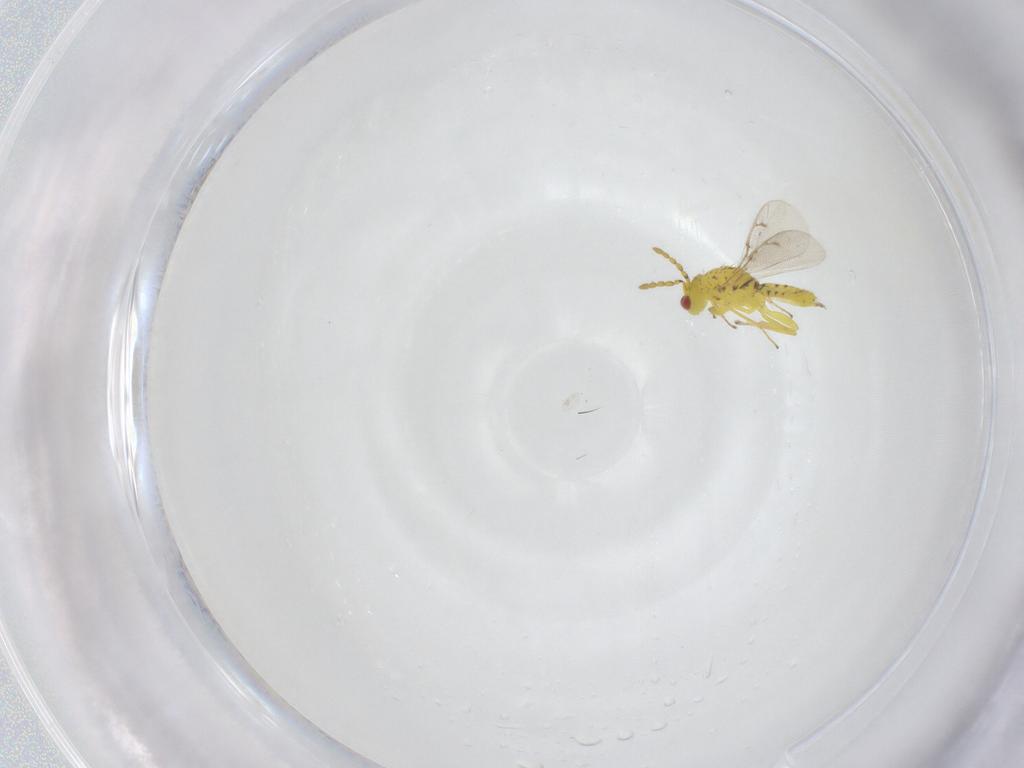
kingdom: Animalia
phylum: Arthropoda
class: Insecta
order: Hymenoptera
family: Eulophidae
